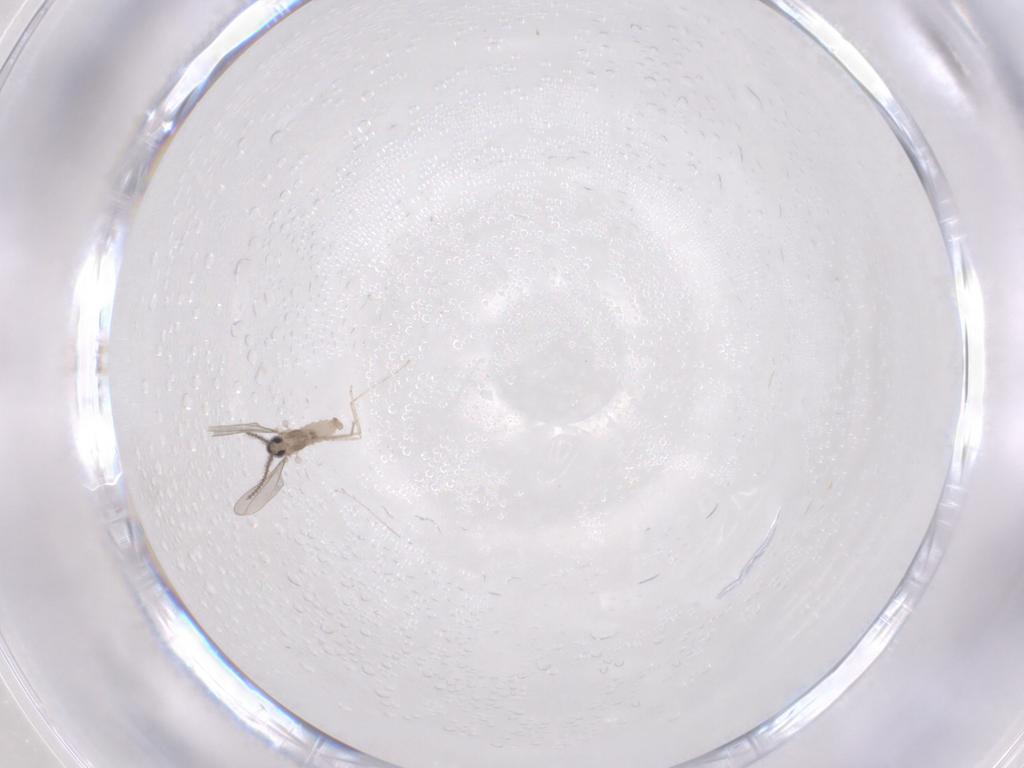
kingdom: Animalia
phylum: Arthropoda
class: Insecta
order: Diptera
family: Cecidomyiidae
